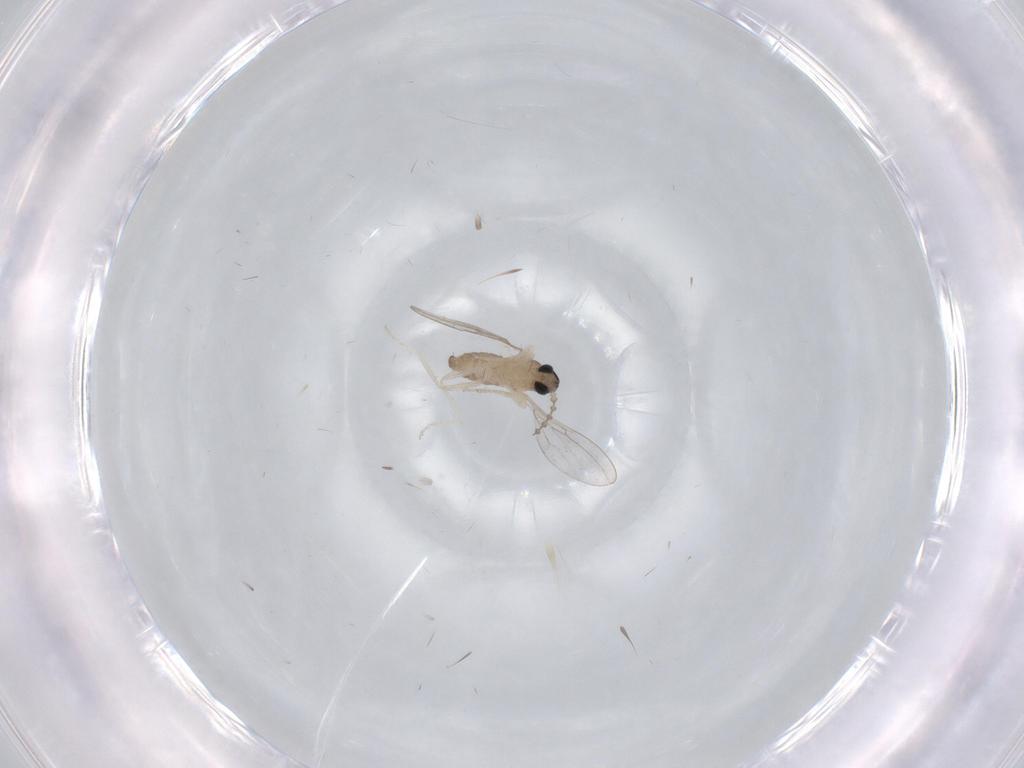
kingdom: Animalia
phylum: Arthropoda
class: Insecta
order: Diptera
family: Cecidomyiidae
